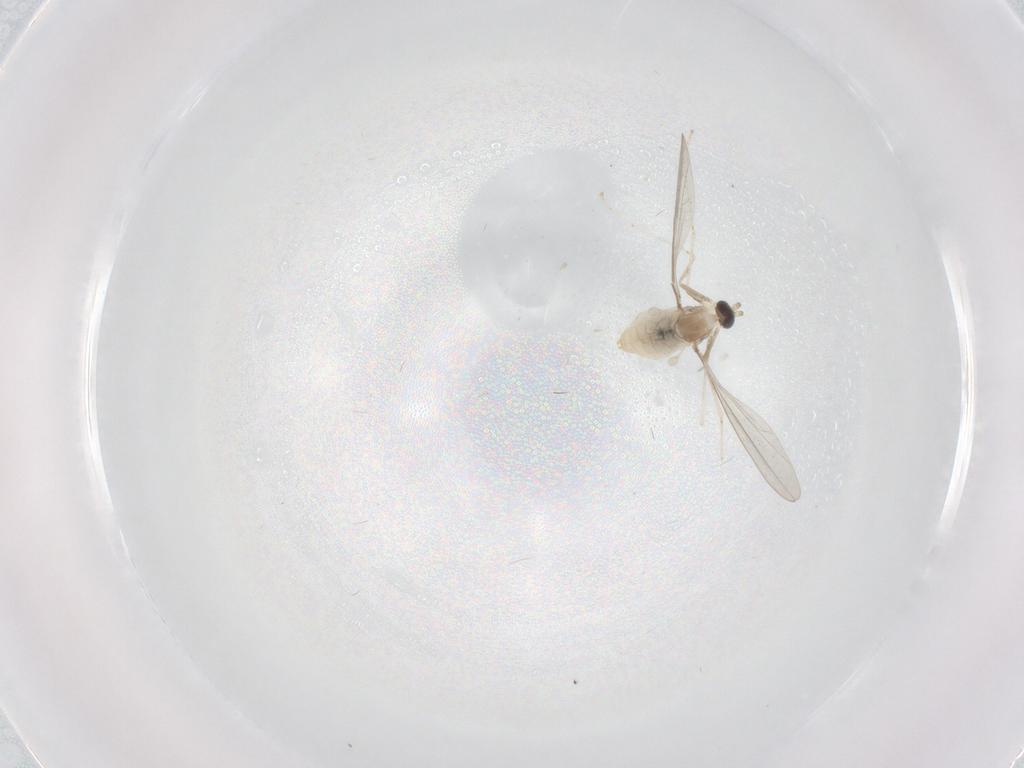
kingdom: Animalia
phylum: Arthropoda
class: Insecta
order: Diptera
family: Cecidomyiidae
